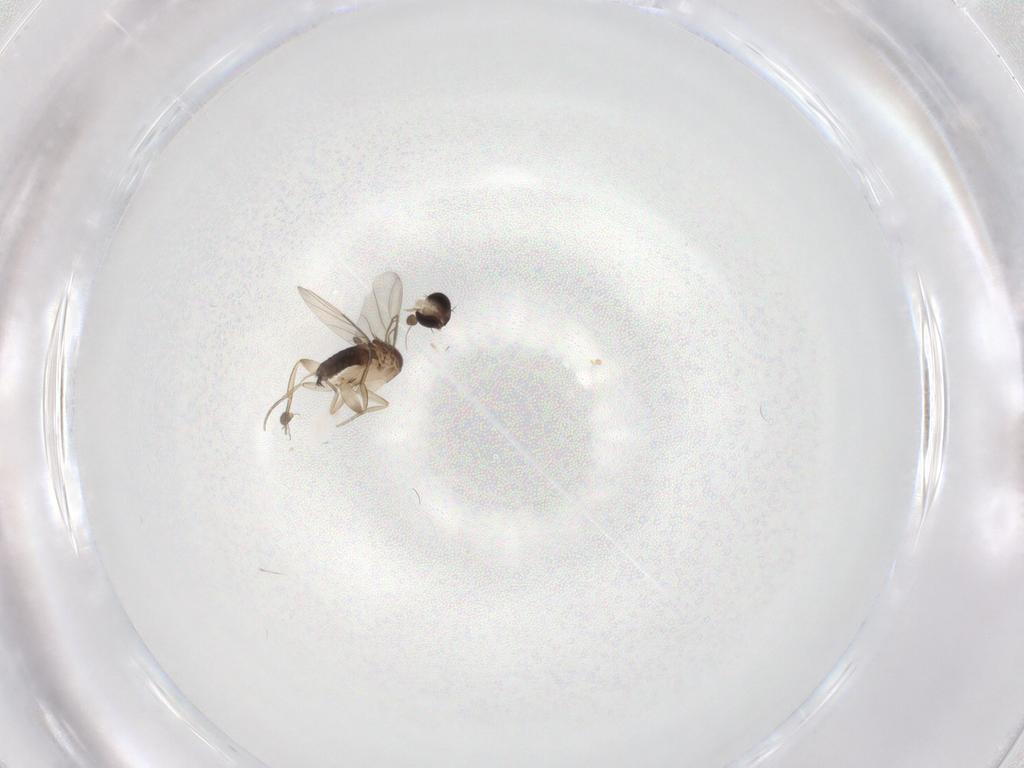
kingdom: Animalia
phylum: Arthropoda
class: Insecta
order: Diptera
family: Phoridae
